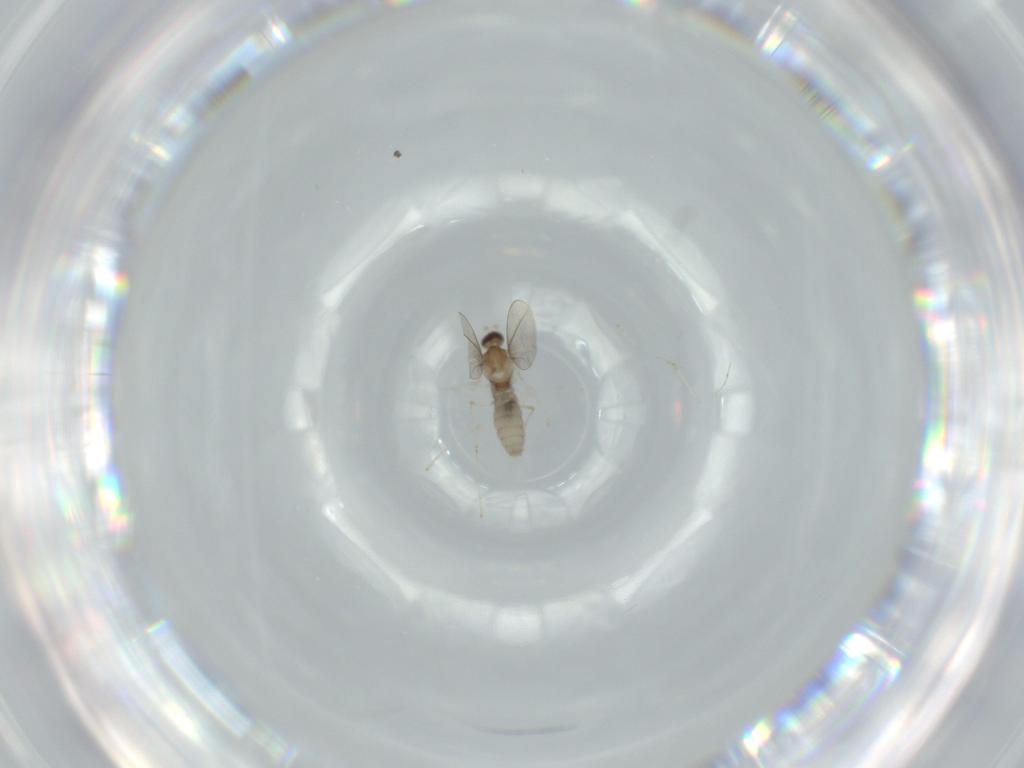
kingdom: Animalia
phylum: Arthropoda
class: Insecta
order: Diptera
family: Cecidomyiidae
